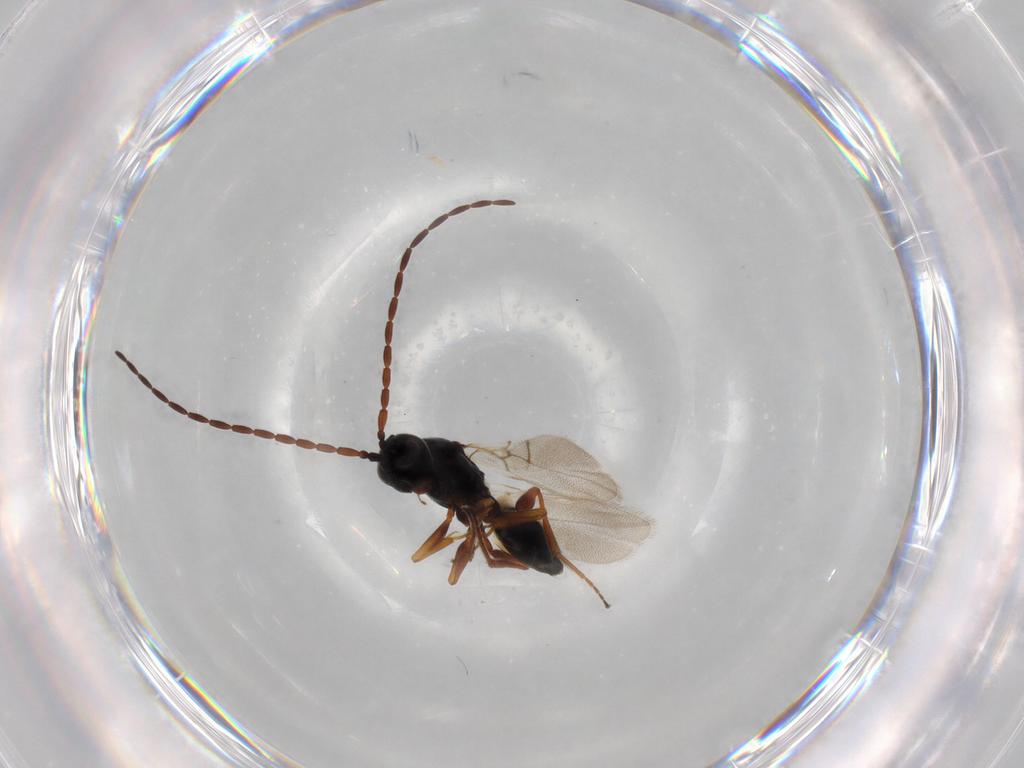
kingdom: Animalia
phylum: Arthropoda
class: Insecta
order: Hymenoptera
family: Figitidae
